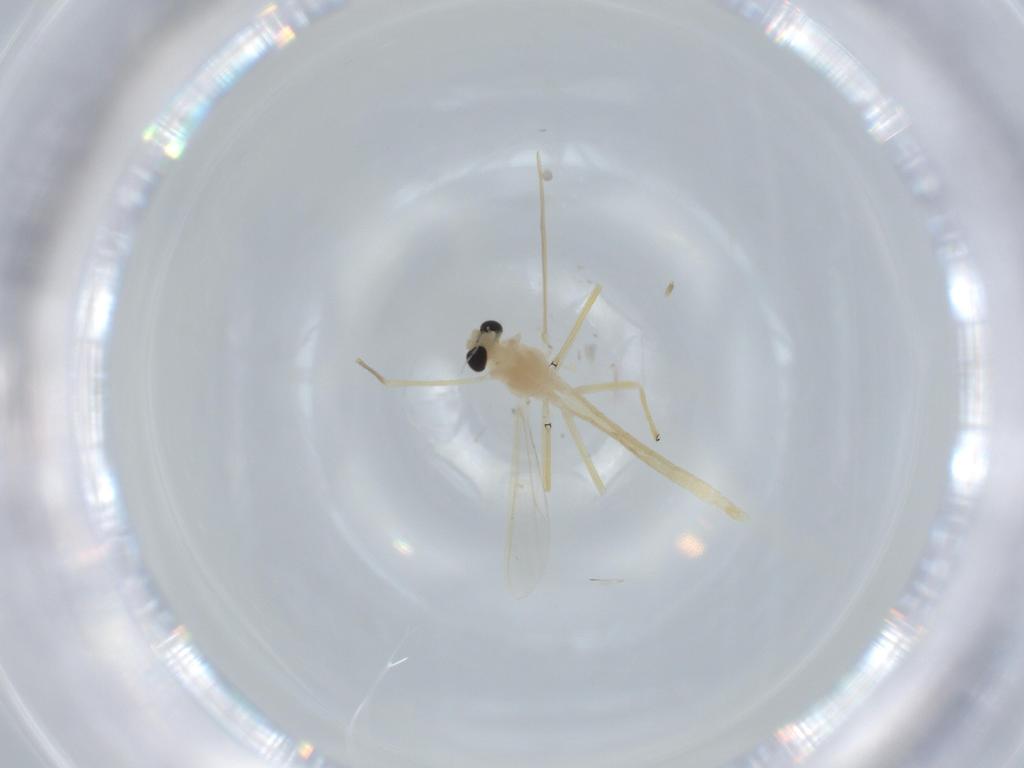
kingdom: Animalia
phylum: Arthropoda
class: Insecta
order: Diptera
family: Chironomidae
